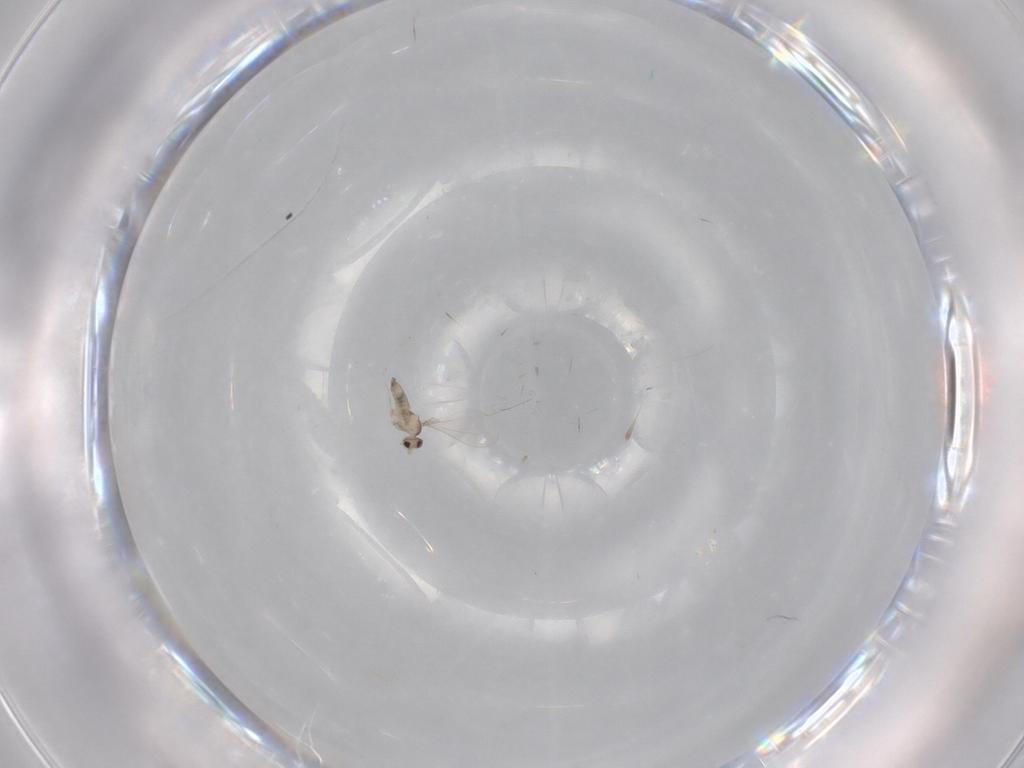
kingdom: Animalia
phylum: Arthropoda
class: Insecta
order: Diptera
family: Cecidomyiidae
